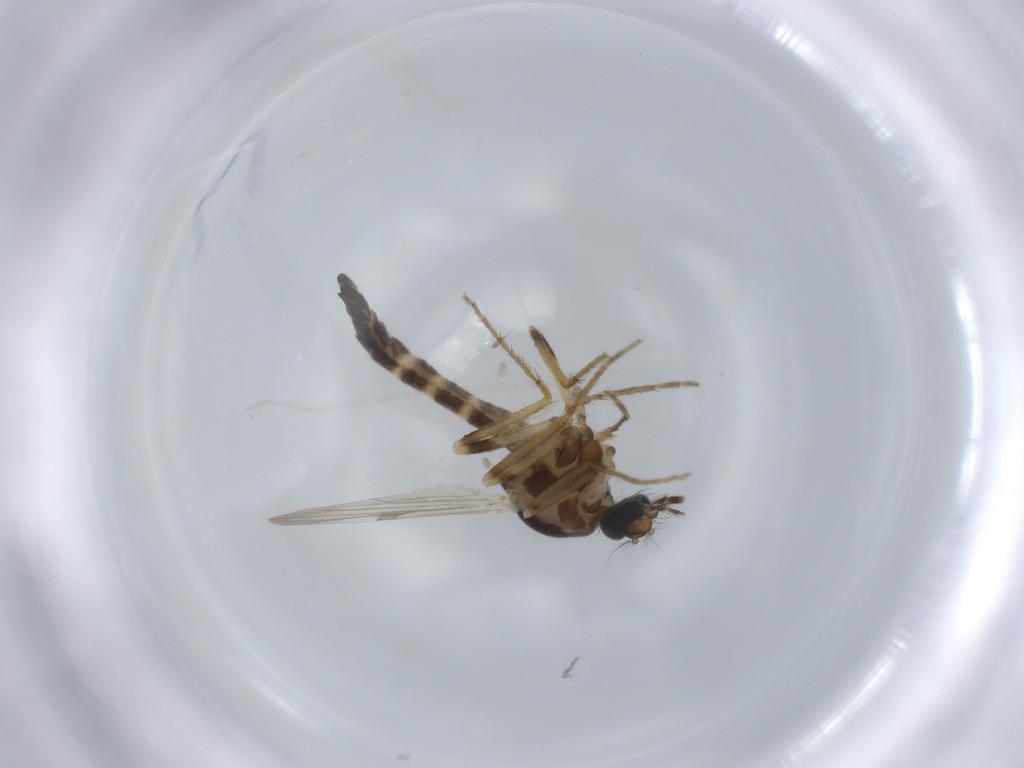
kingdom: Animalia
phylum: Arthropoda
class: Insecta
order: Diptera
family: Ceratopogonidae
